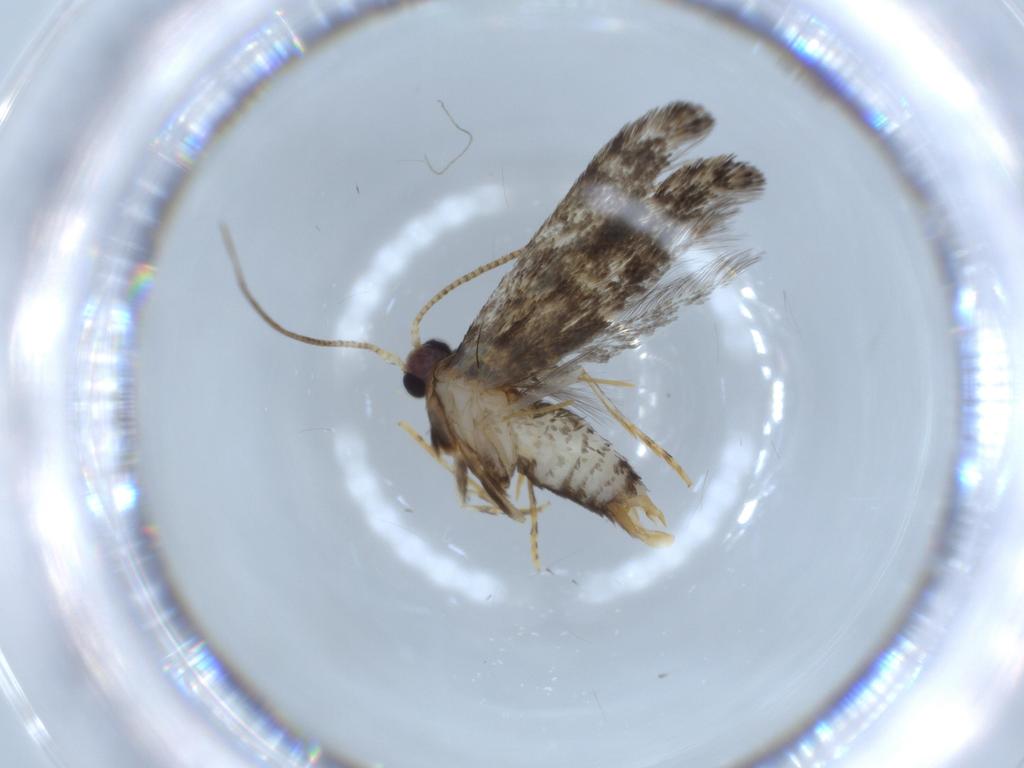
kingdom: Animalia
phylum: Arthropoda
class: Insecta
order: Lepidoptera
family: Tineidae
